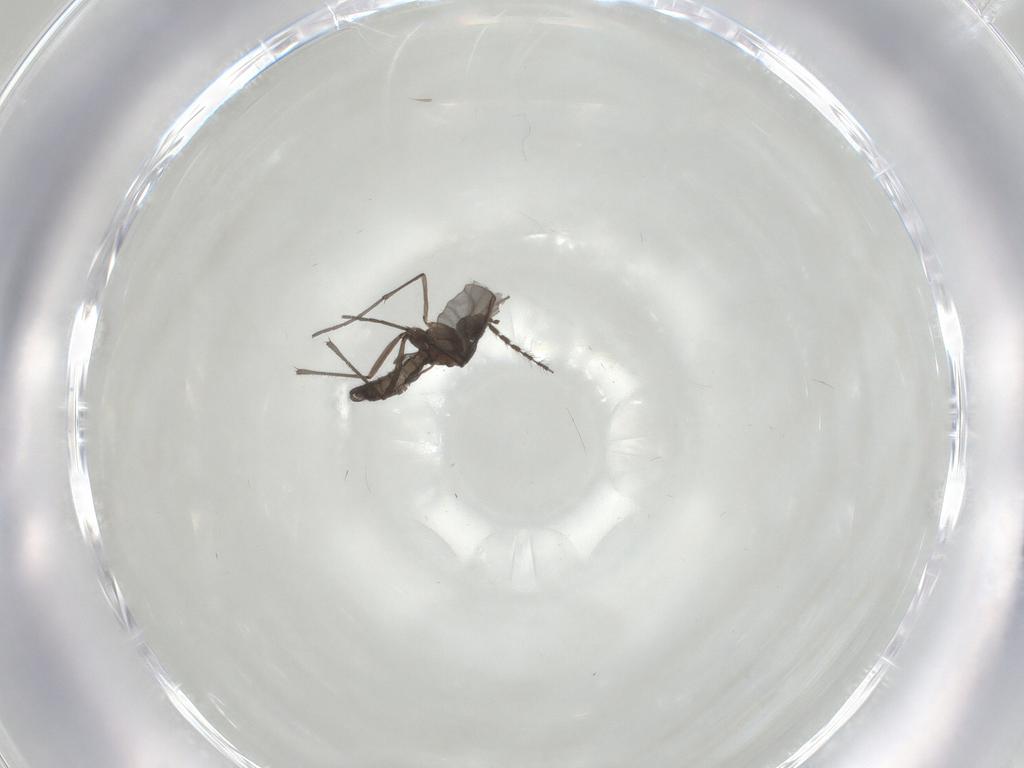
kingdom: Animalia
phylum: Arthropoda
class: Insecta
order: Diptera
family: Sciaridae
